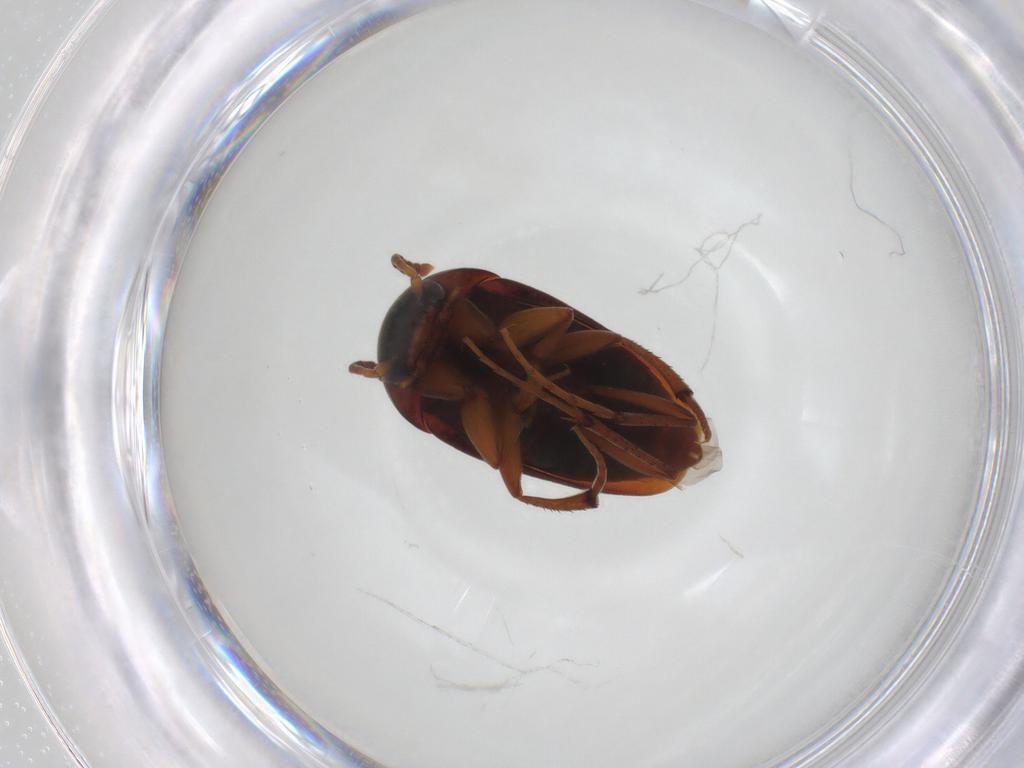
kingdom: Animalia
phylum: Arthropoda
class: Insecta
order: Coleoptera
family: Leiodidae
